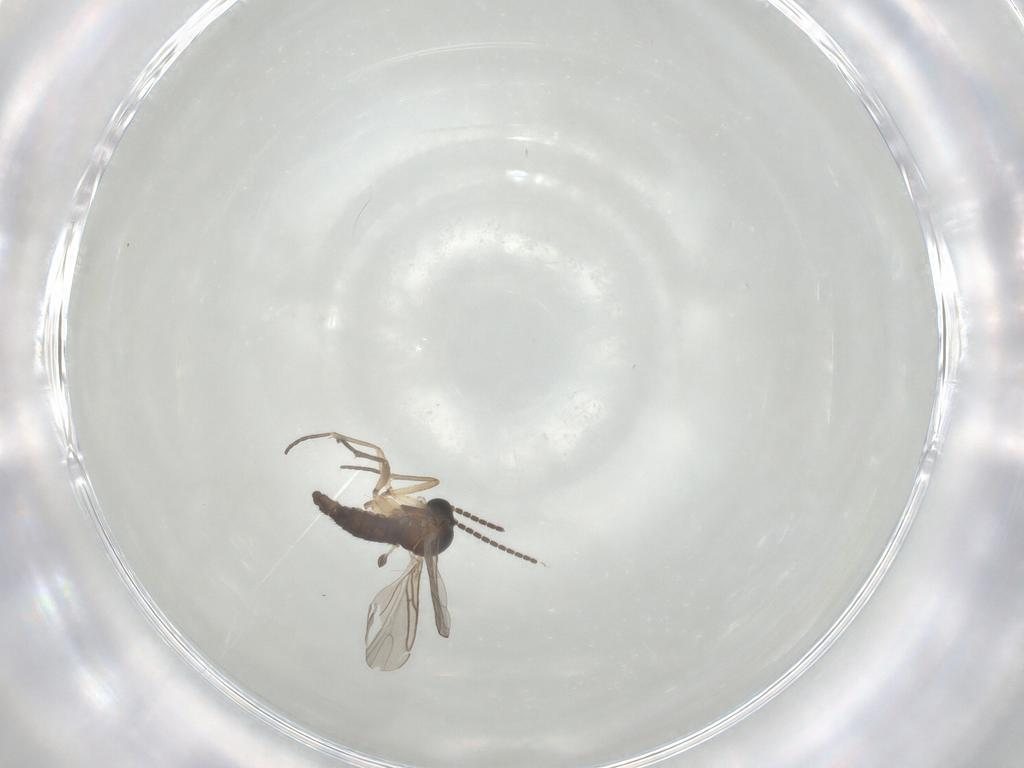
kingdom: Animalia
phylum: Arthropoda
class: Insecta
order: Diptera
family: Sciaridae
